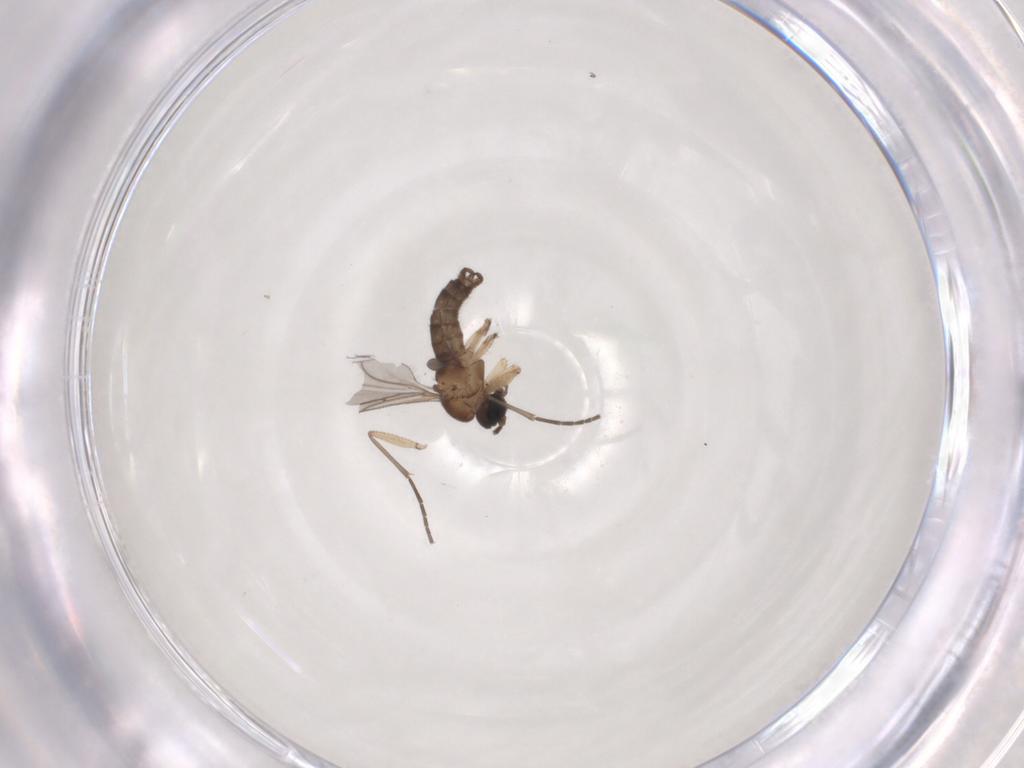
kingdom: Animalia
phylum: Arthropoda
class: Insecta
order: Diptera
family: Sciaridae
